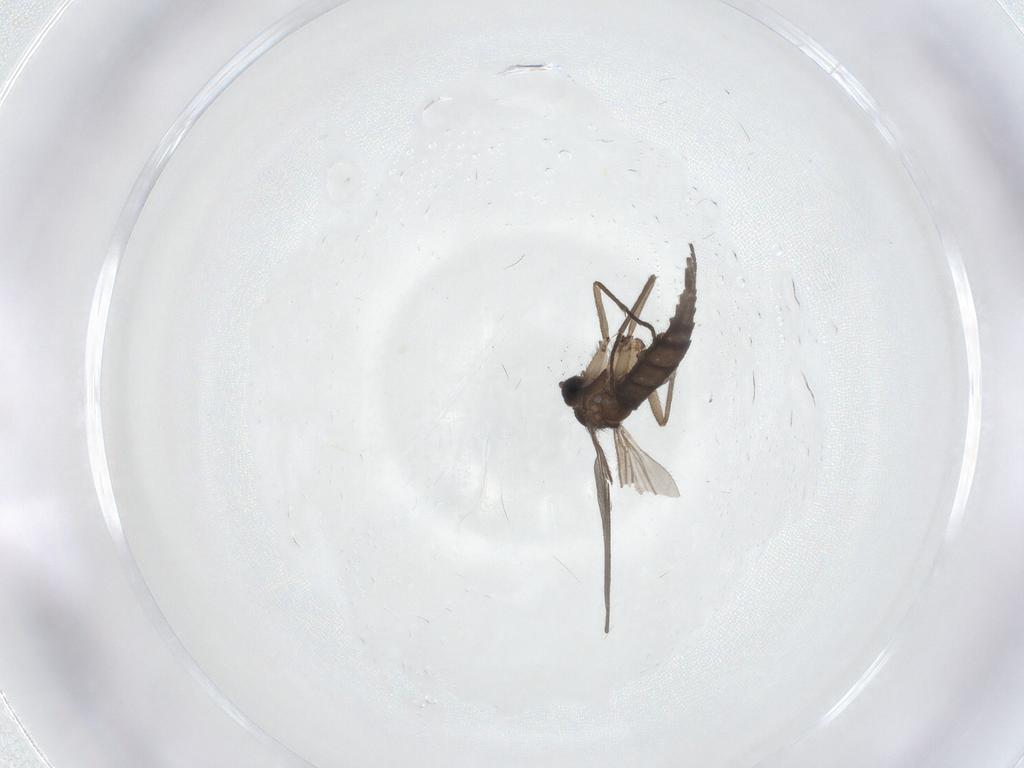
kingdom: Animalia
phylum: Arthropoda
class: Insecta
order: Diptera
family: Sciaridae
